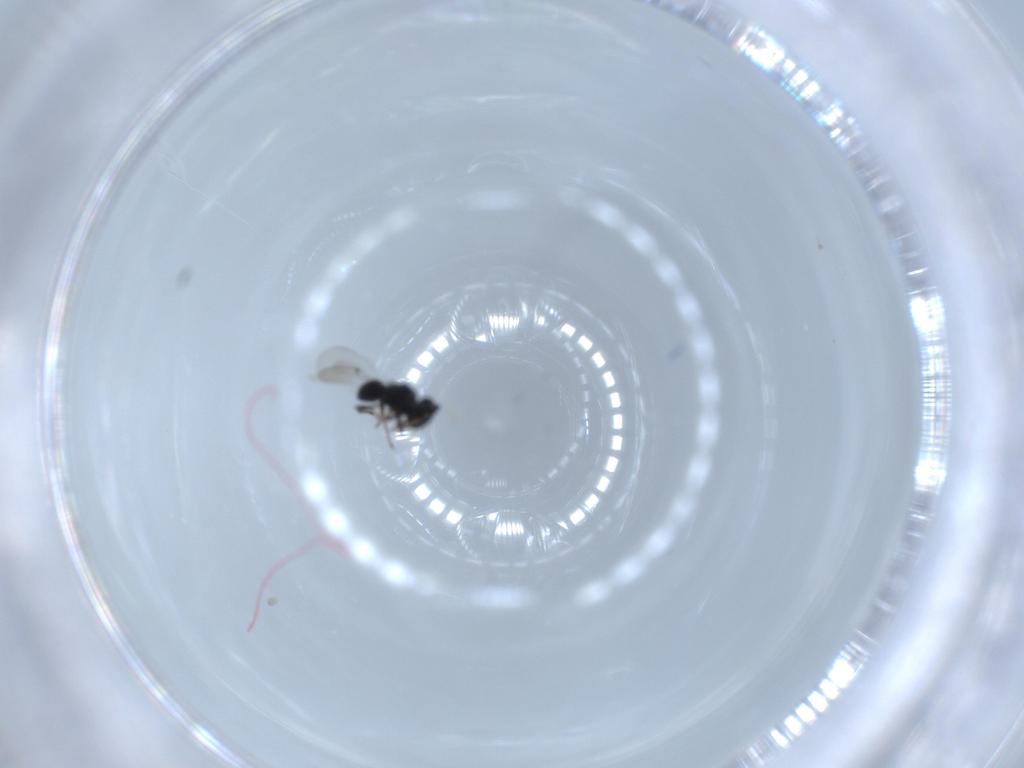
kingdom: Animalia
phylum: Arthropoda
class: Insecta
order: Hymenoptera
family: Platygastridae
